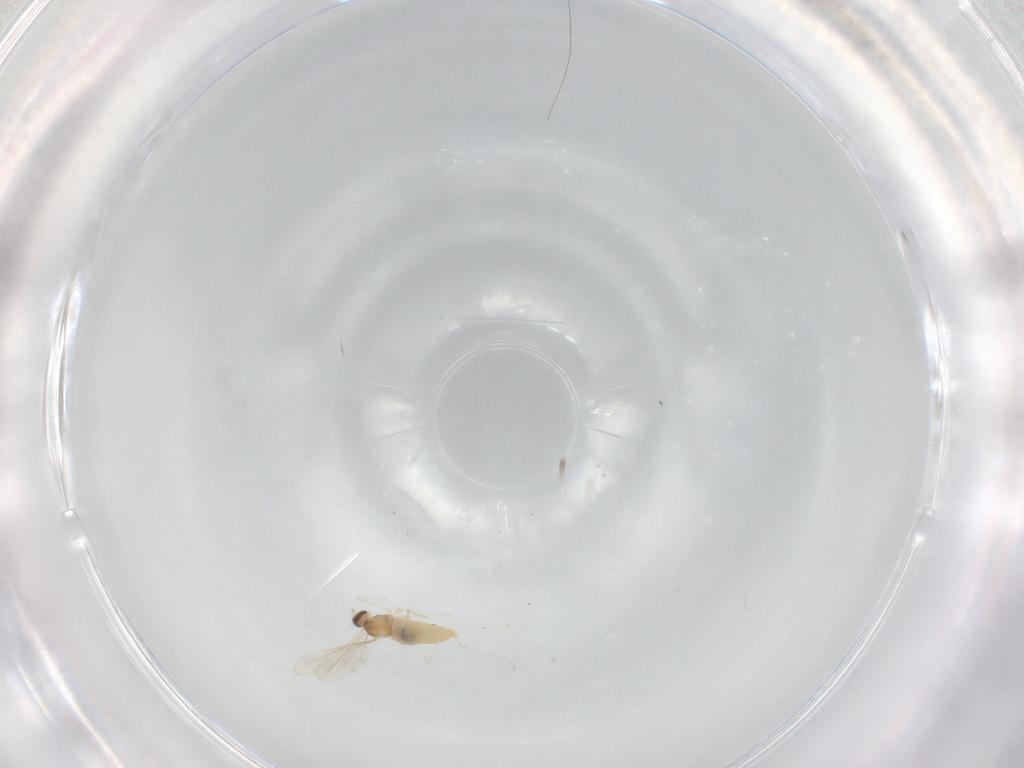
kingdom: Animalia
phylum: Arthropoda
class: Insecta
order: Diptera
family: Cecidomyiidae
